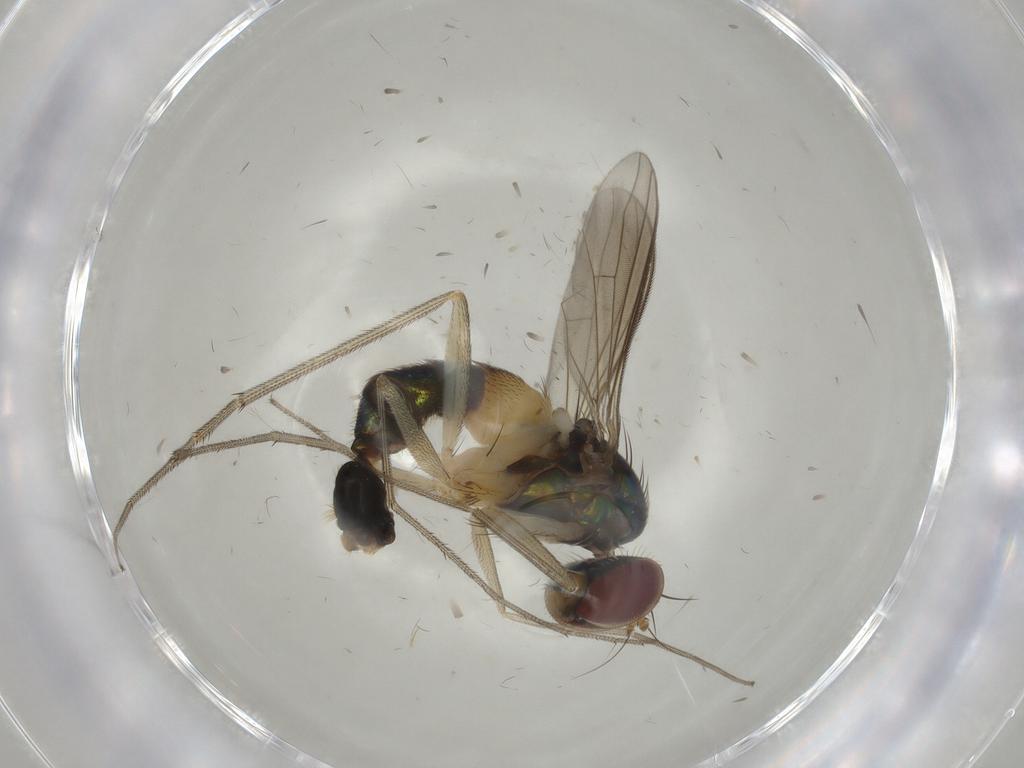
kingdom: Animalia
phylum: Arthropoda
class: Insecta
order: Diptera
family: Dolichopodidae
